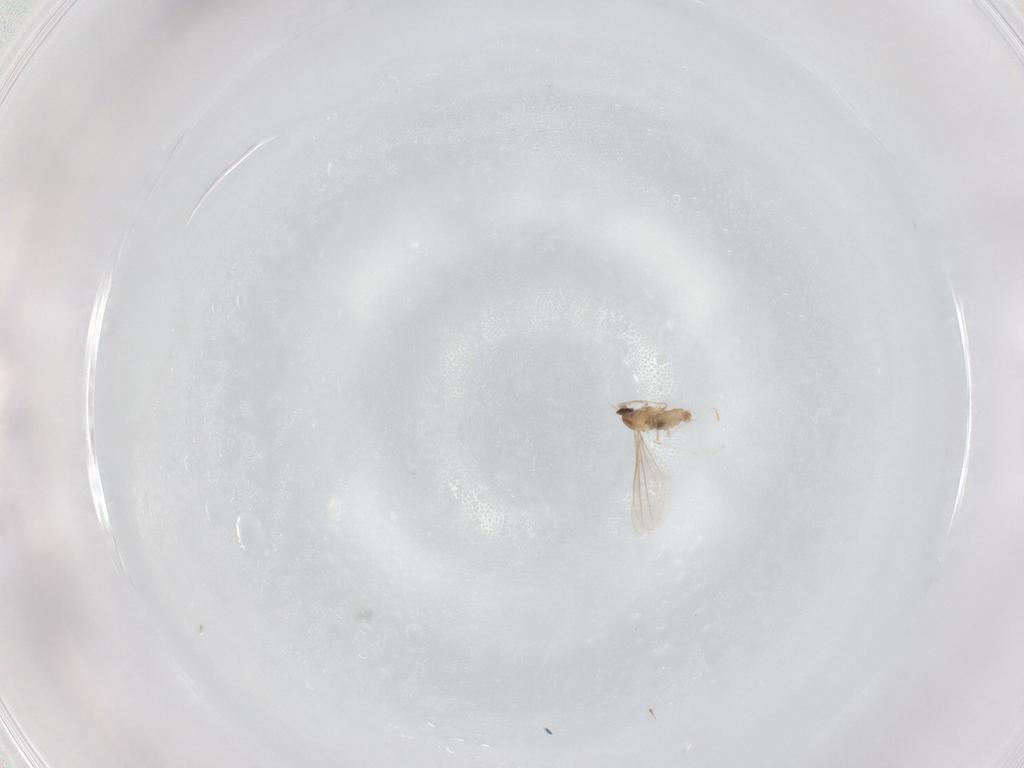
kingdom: Animalia
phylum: Arthropoda
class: Insecta
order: Diptera
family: Cecidomyiidae
